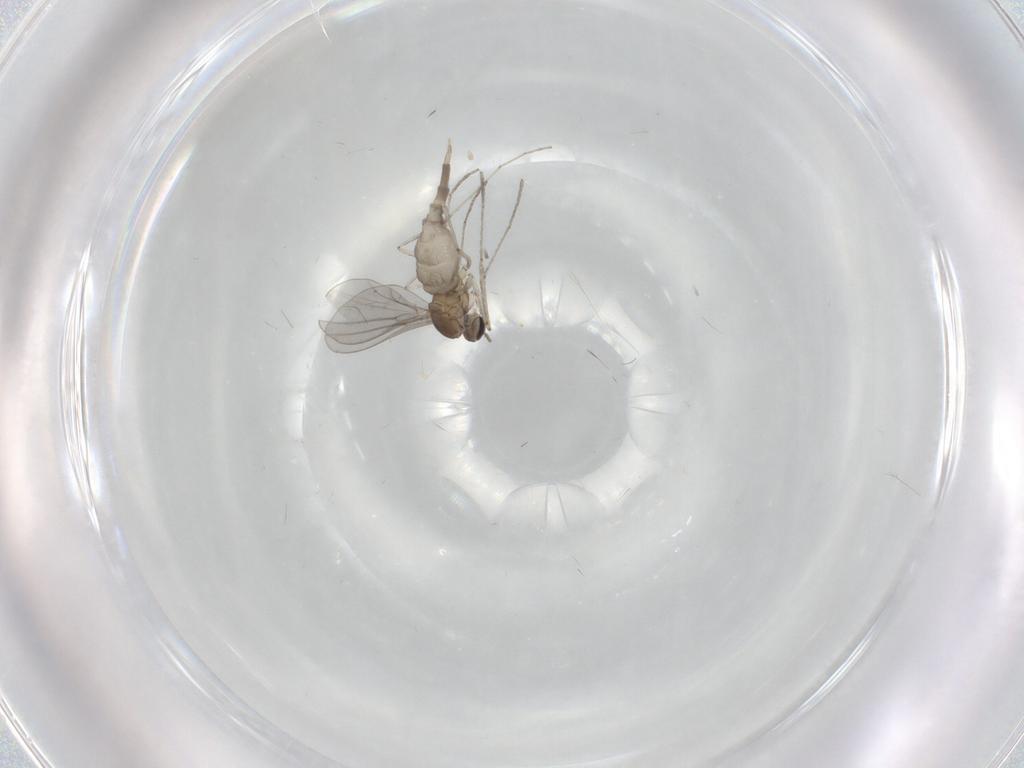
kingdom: Animalia
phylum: Arthropoda
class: Insecta
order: Diptera
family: Cecidomyiidae
